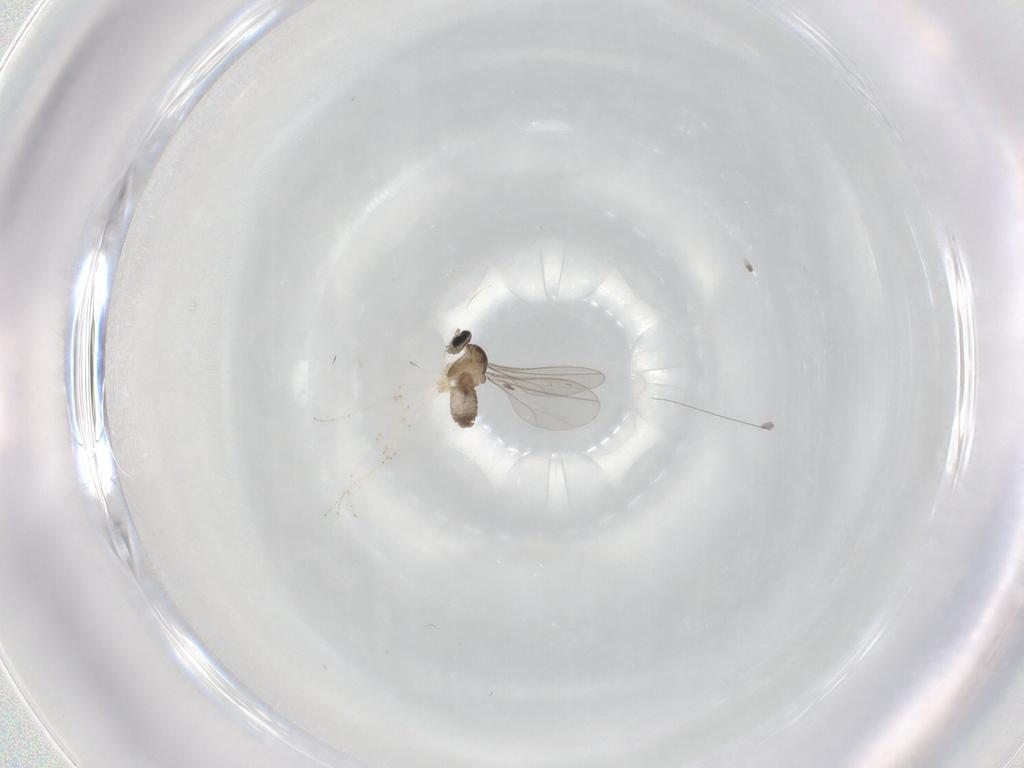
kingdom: Animalia
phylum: Arthropoda
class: Insecta
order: Diptera
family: Cecidomyiidae
